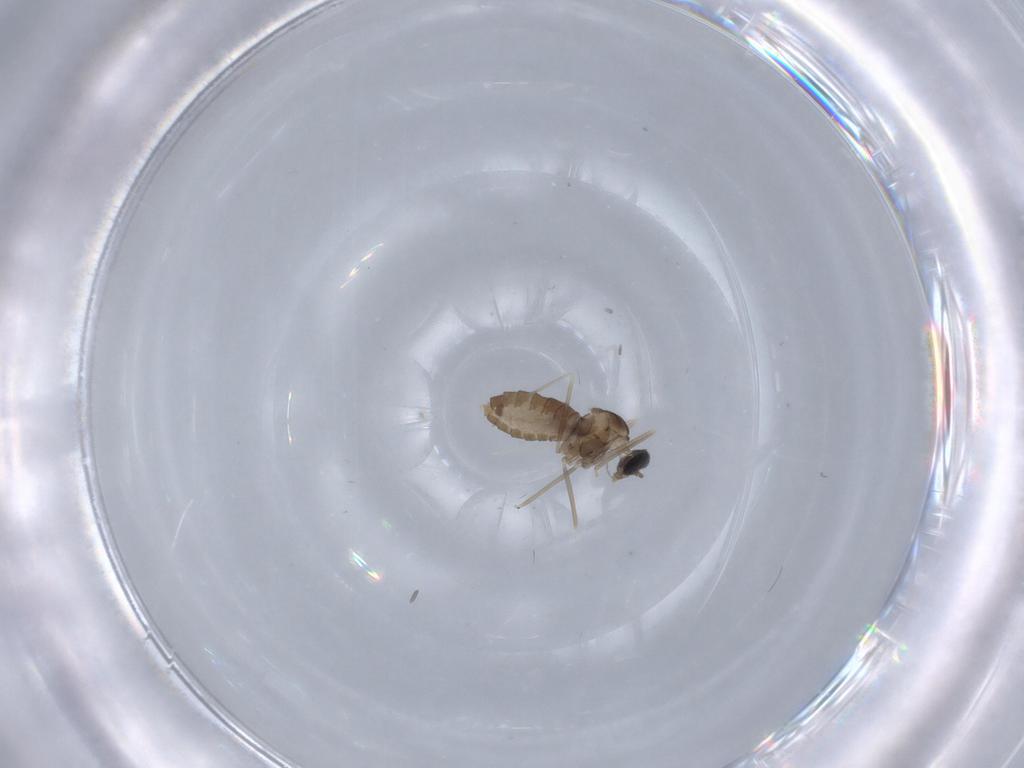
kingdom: Animalia
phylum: Arthropoda
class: Insecta
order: Diptera
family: Cecidomyiidae
